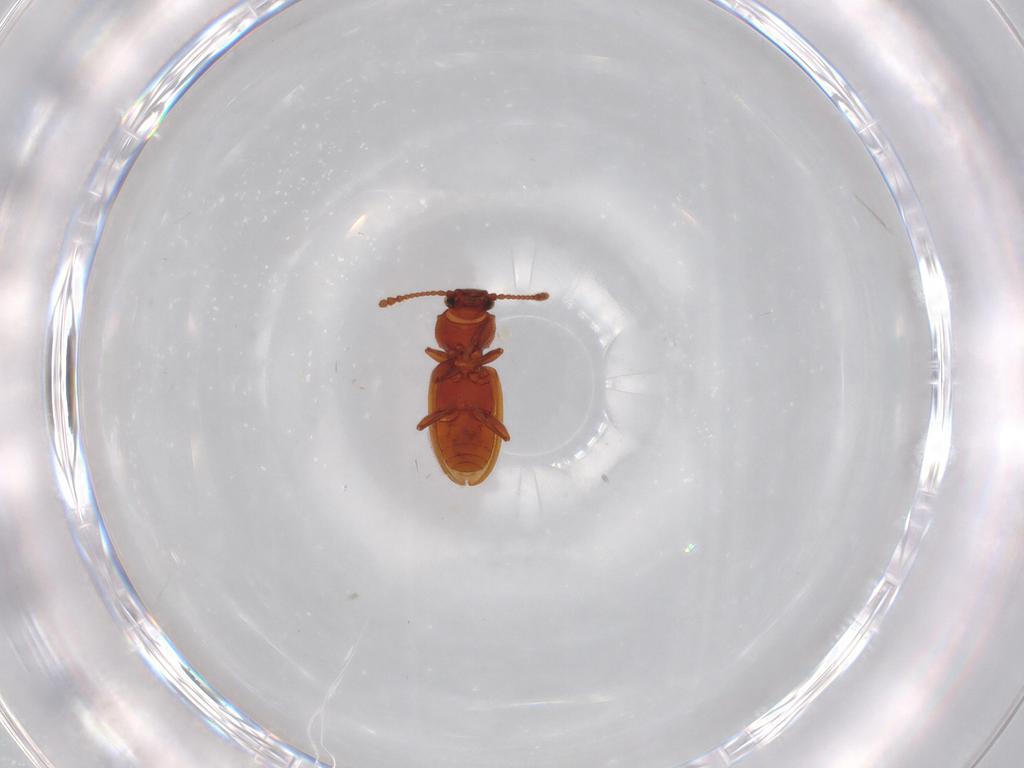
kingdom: Animalia
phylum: Arthropoda
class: Insecta
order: Coleoptera
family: Silvanidae
